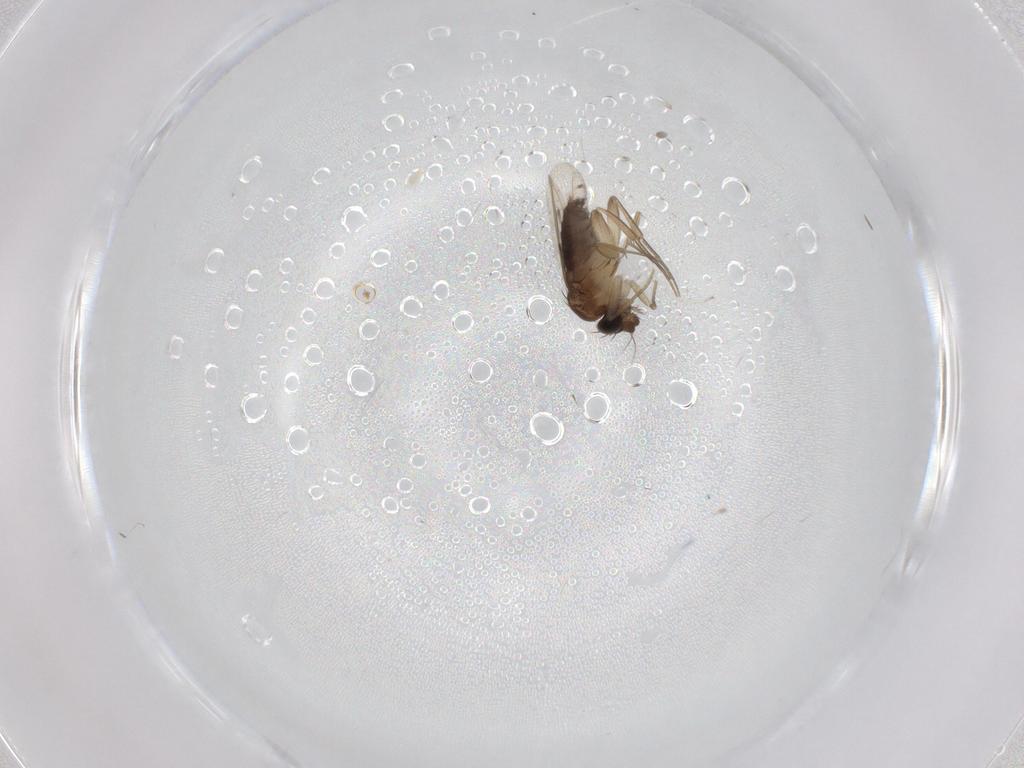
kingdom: Animalia
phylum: Arthropoda
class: Insecta
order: Diptera
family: Phoridae
